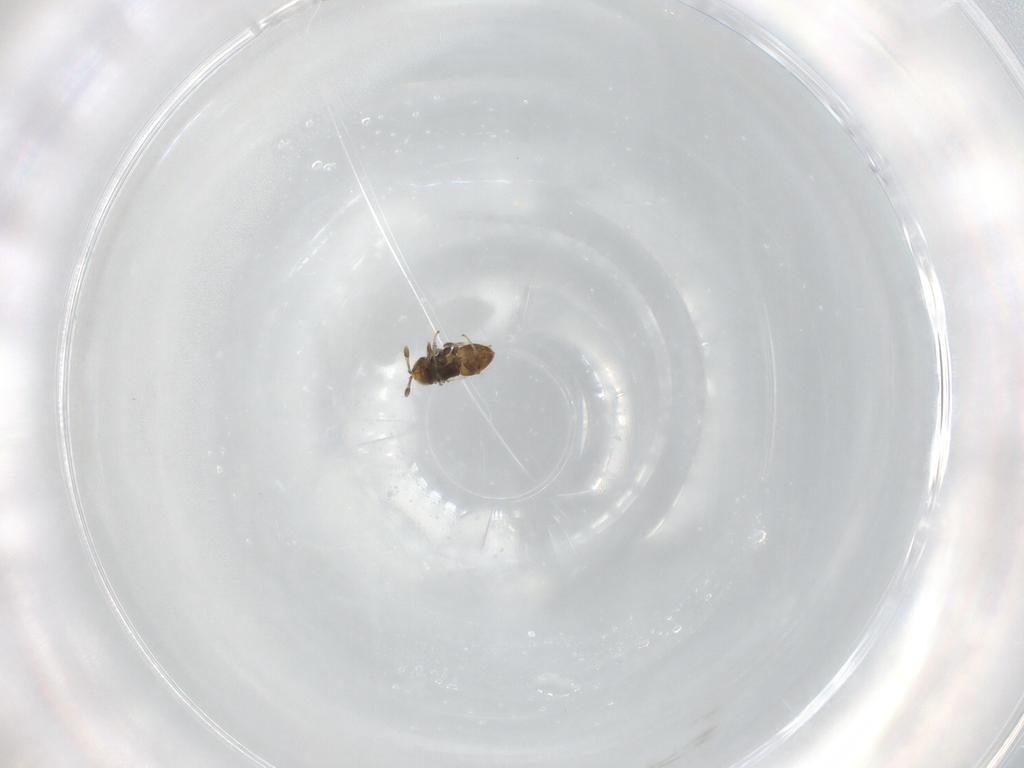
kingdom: Animalia
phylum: Arthropoda
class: Insecta
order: Hymenoptera
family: Encyrtidae
